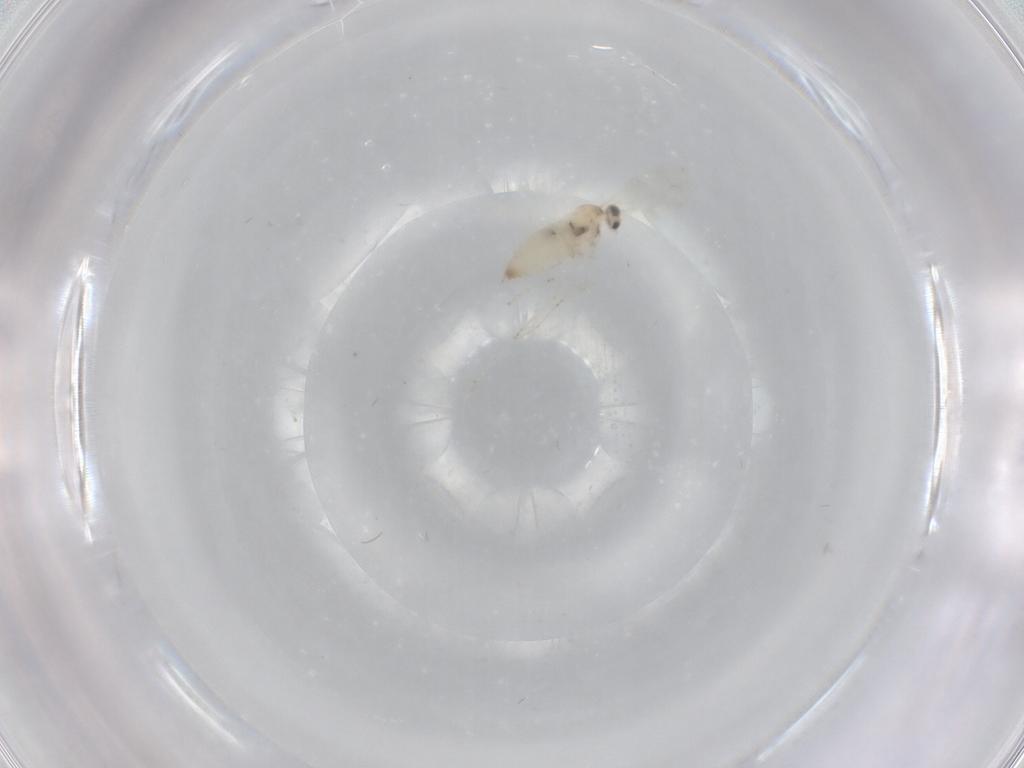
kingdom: Animalia
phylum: Arthropoda
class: Insecta
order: Diptera
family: Cecidomyiidae
